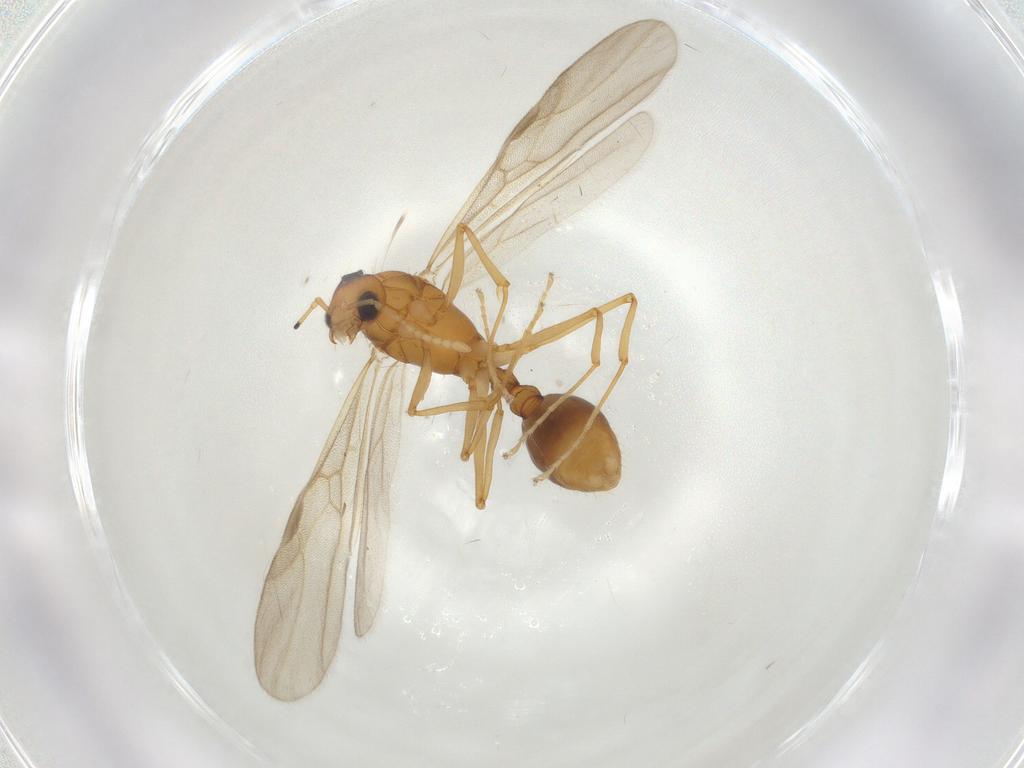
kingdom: Animalia
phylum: Arthropoda
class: Insecta
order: Hymenoptera
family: Formicidae
